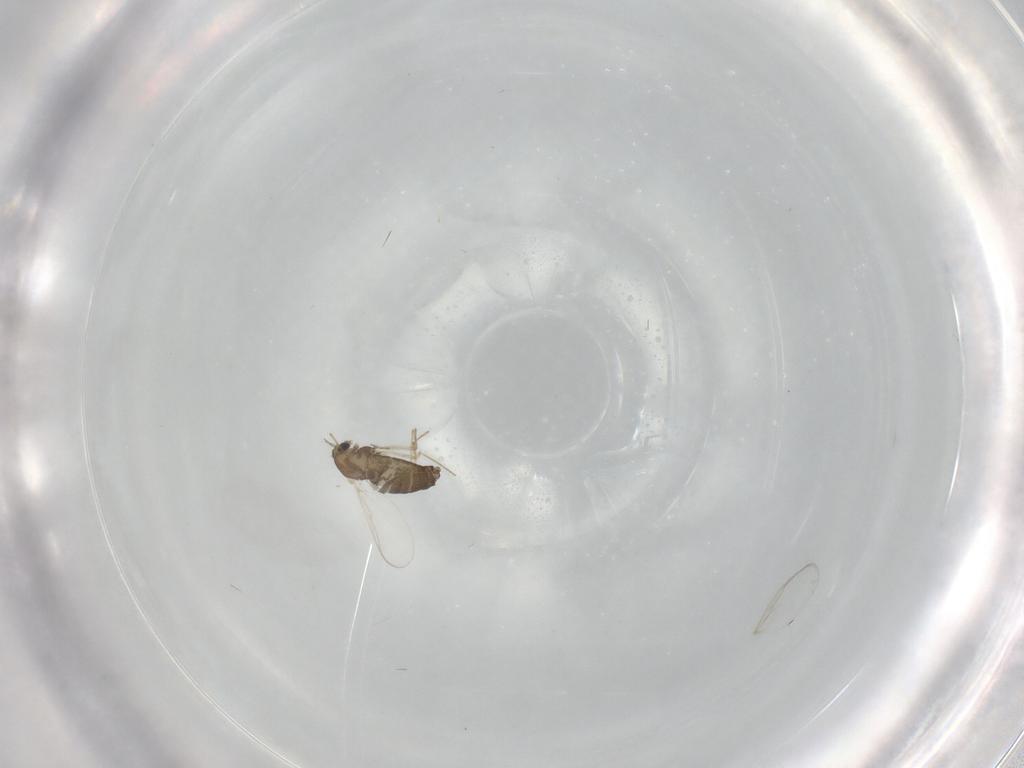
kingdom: Animalia
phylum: Arthropoda
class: Insecta
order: Diptera
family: Chironomidae
